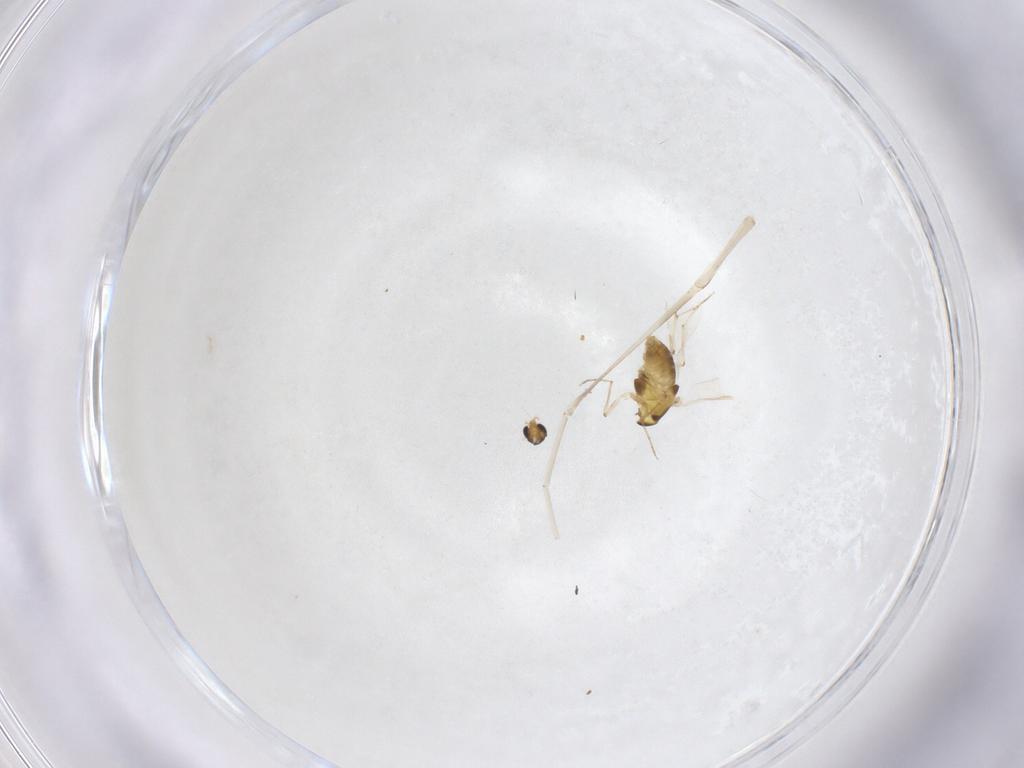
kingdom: Animalia
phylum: Arthropoda
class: Insecta
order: Diptera
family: Chironomidae
